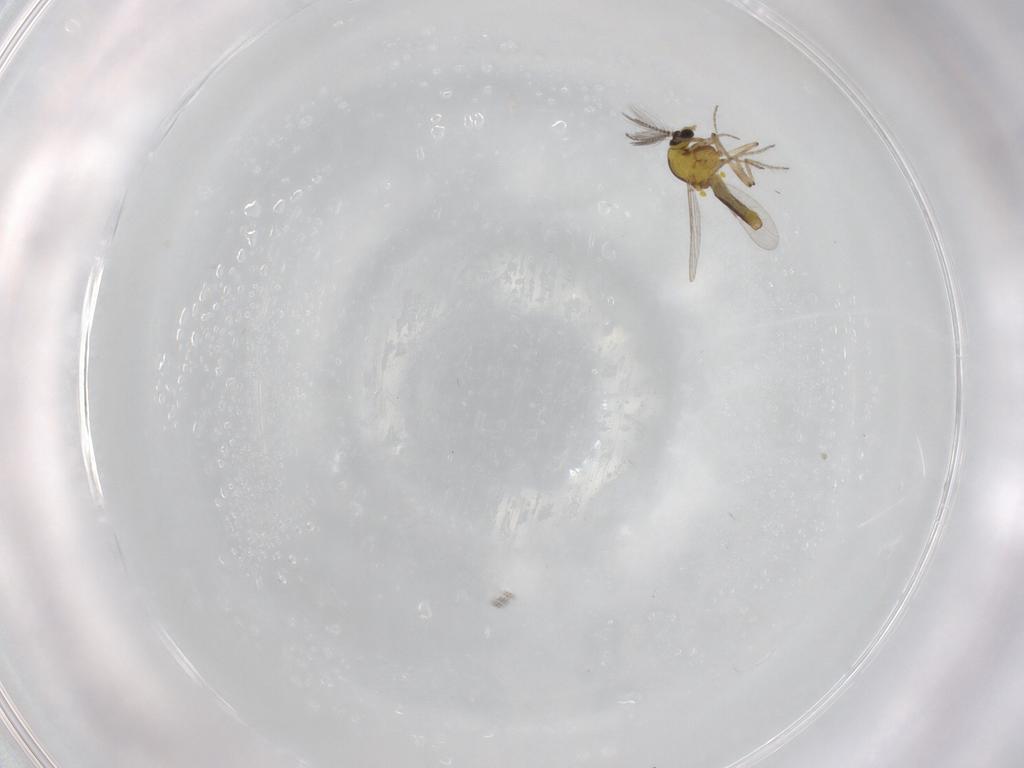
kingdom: Animalia
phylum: Arthropoda
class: Insecta
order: Diptera
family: Ceratopogonidae
